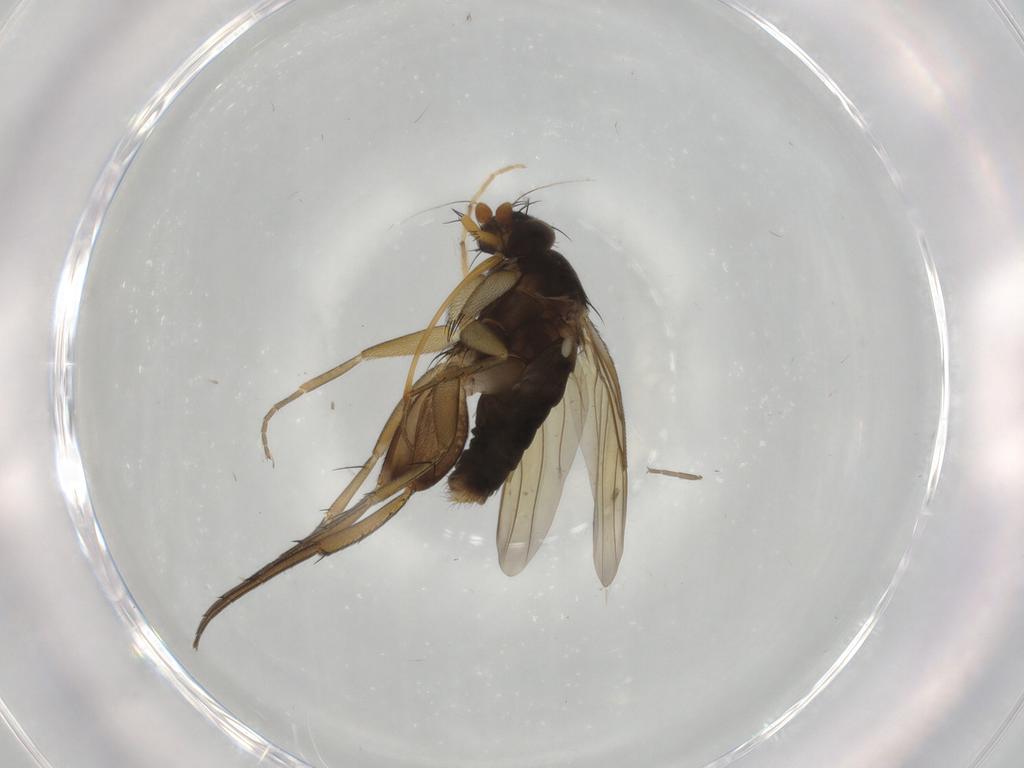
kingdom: Animalia
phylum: Arthropoda
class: Insecta
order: Diptera
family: Phoridae
